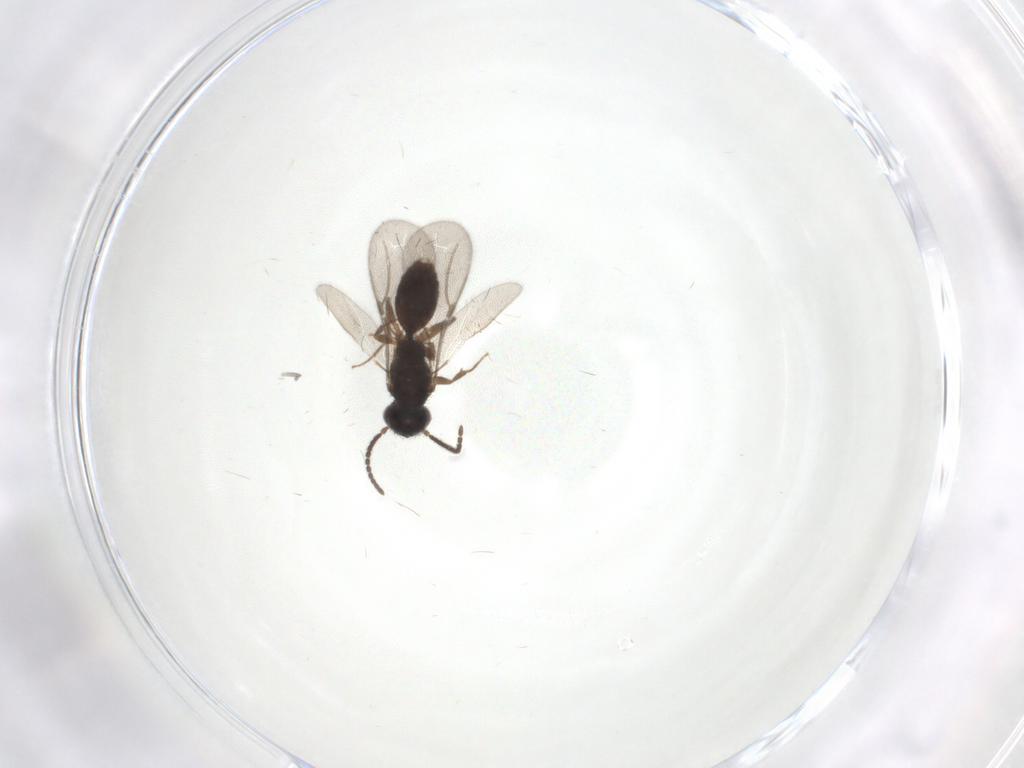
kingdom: Animalia
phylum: Arthropoda
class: Insecta
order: Hymenoptera
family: Bethylidae
